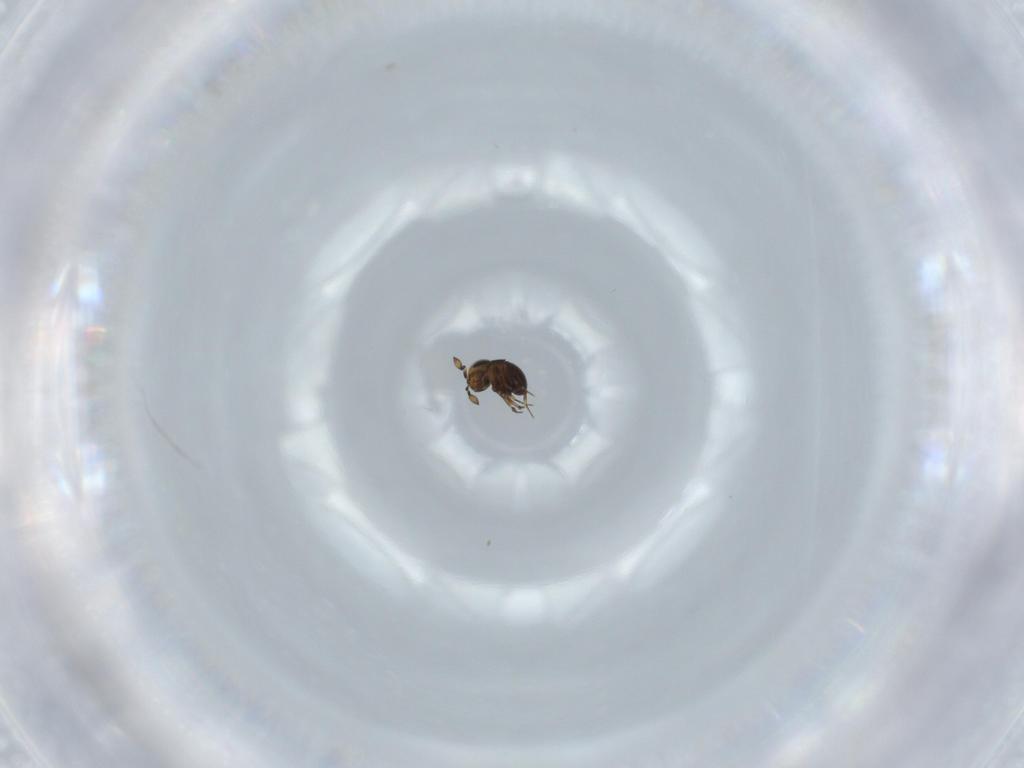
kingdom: Animalia
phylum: Arthropoda
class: Insecta
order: Hymenoptera
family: Scelionidae
